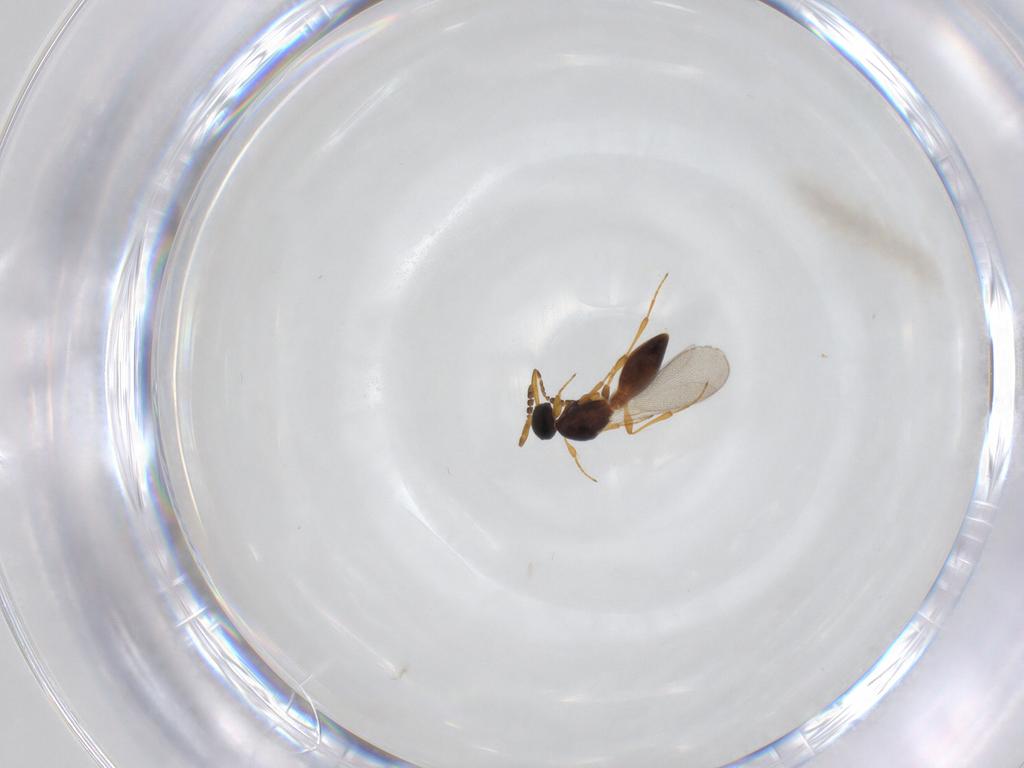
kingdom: Animalia
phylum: Arthropoda
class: Insecta
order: Hymenoptera
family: Platygastridae
